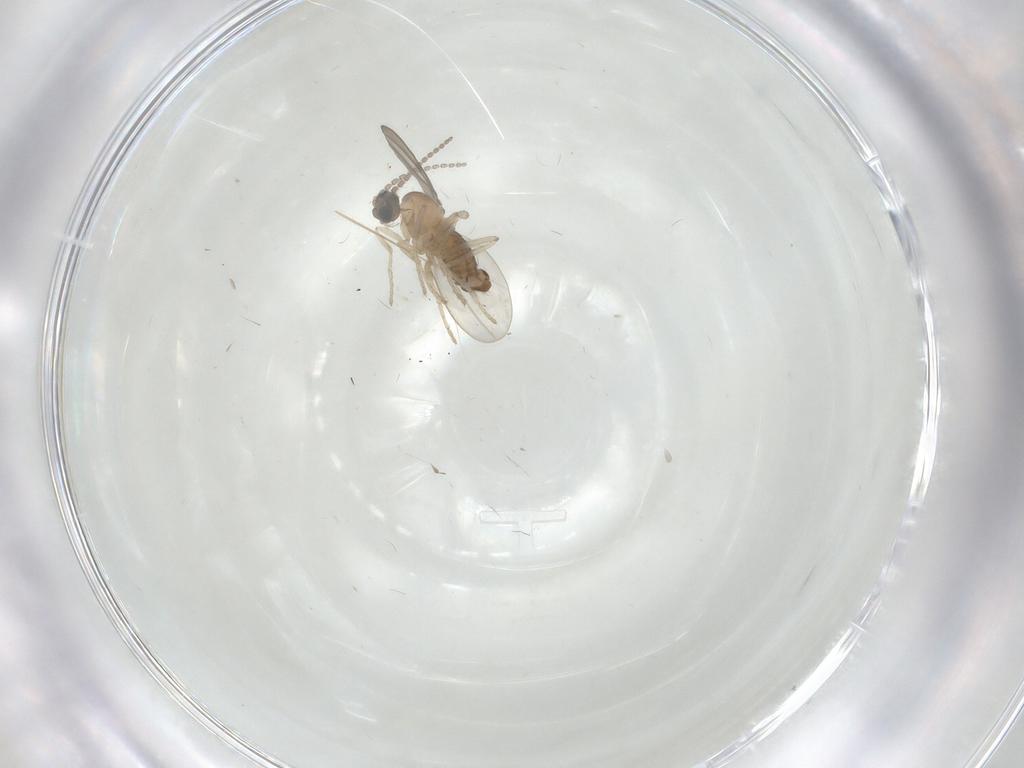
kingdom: Animalia
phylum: Arthropoda
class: Insecta
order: Diptera
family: Cecidomyiidae
